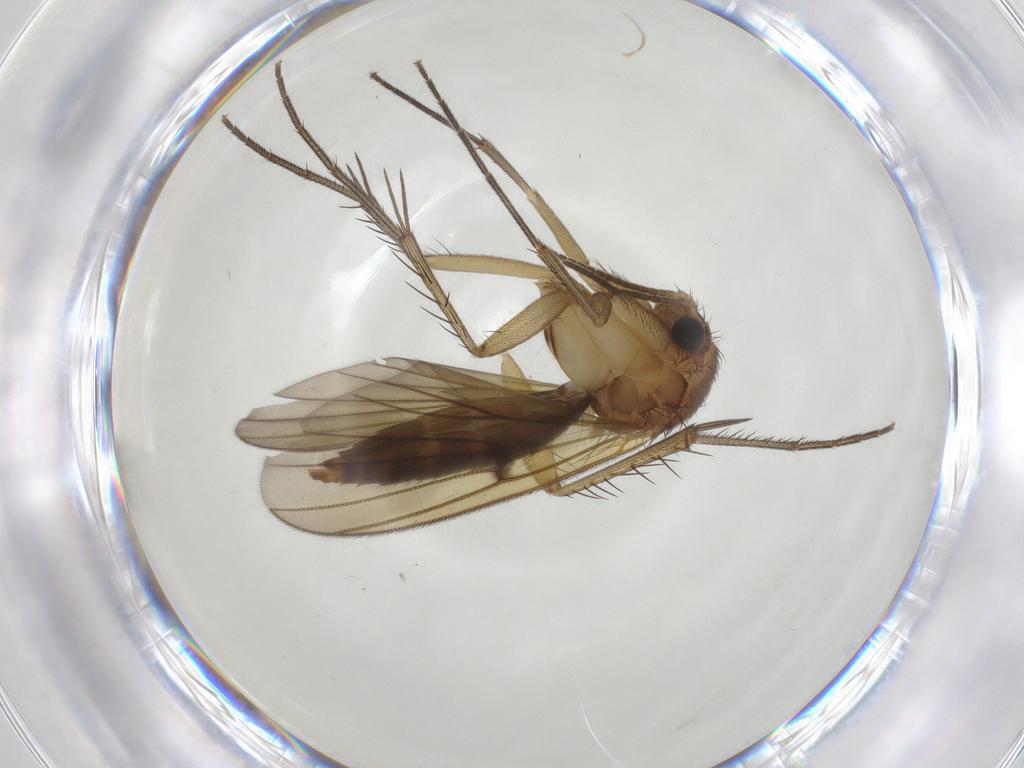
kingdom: Animalia
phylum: Arthropoda
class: Insecta
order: Diptera
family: Mycetophilidae
